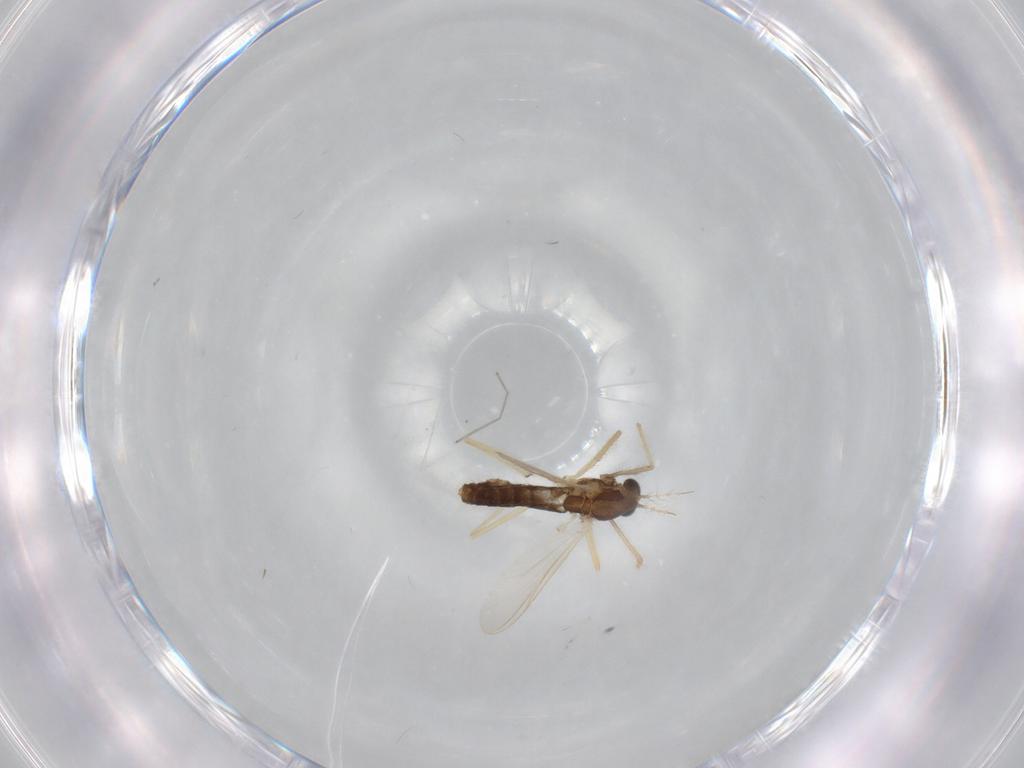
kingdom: Animalia
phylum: Arthropoda
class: Insecta
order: Diptera
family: Chironomidae
